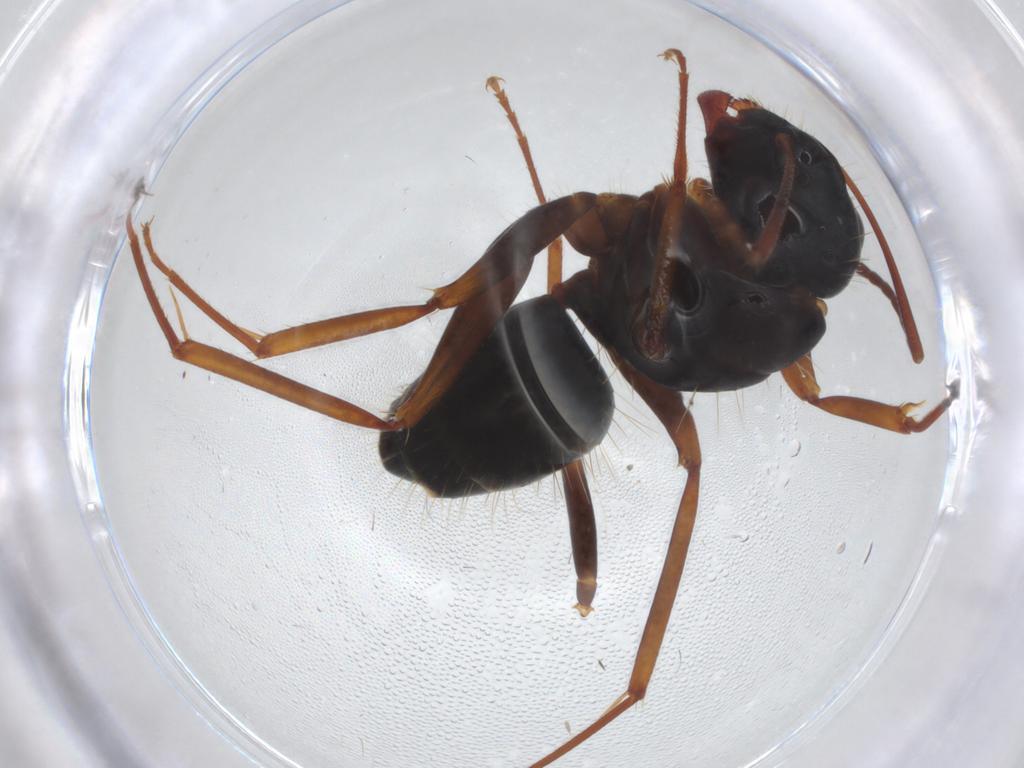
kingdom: Animalia
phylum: Arthropoda
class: Insecta
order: Hymenoptera
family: Formicidae
